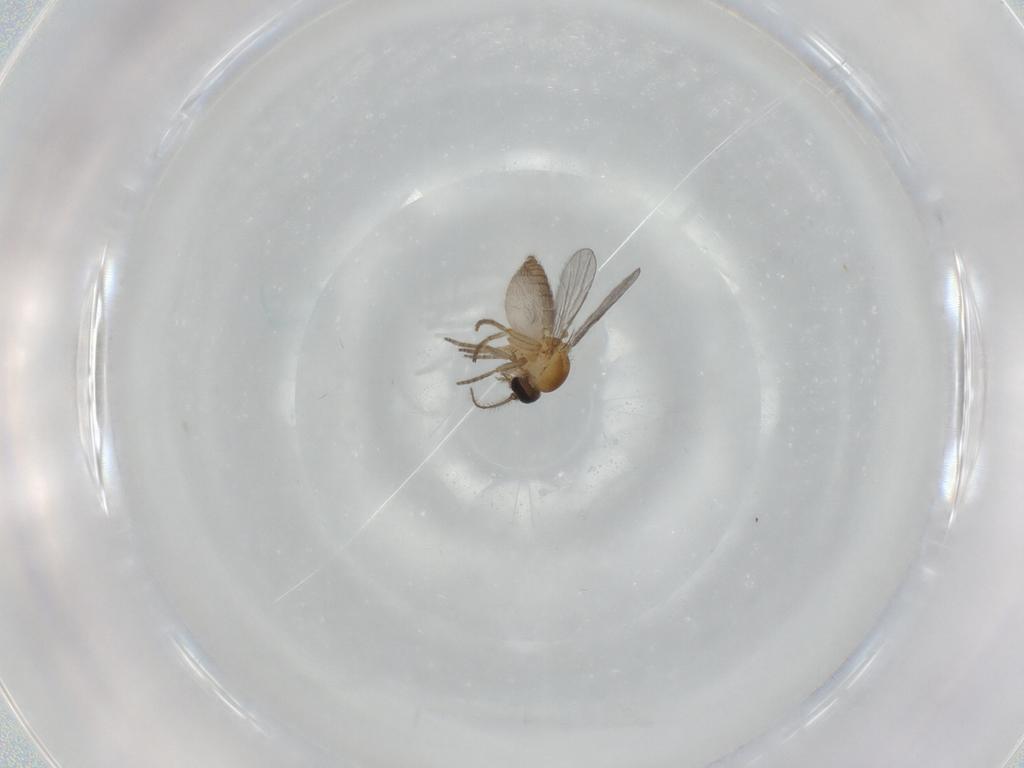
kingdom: Animalia
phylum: Arthropoda
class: Insecta
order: Diptera
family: Ceratopogonidae
